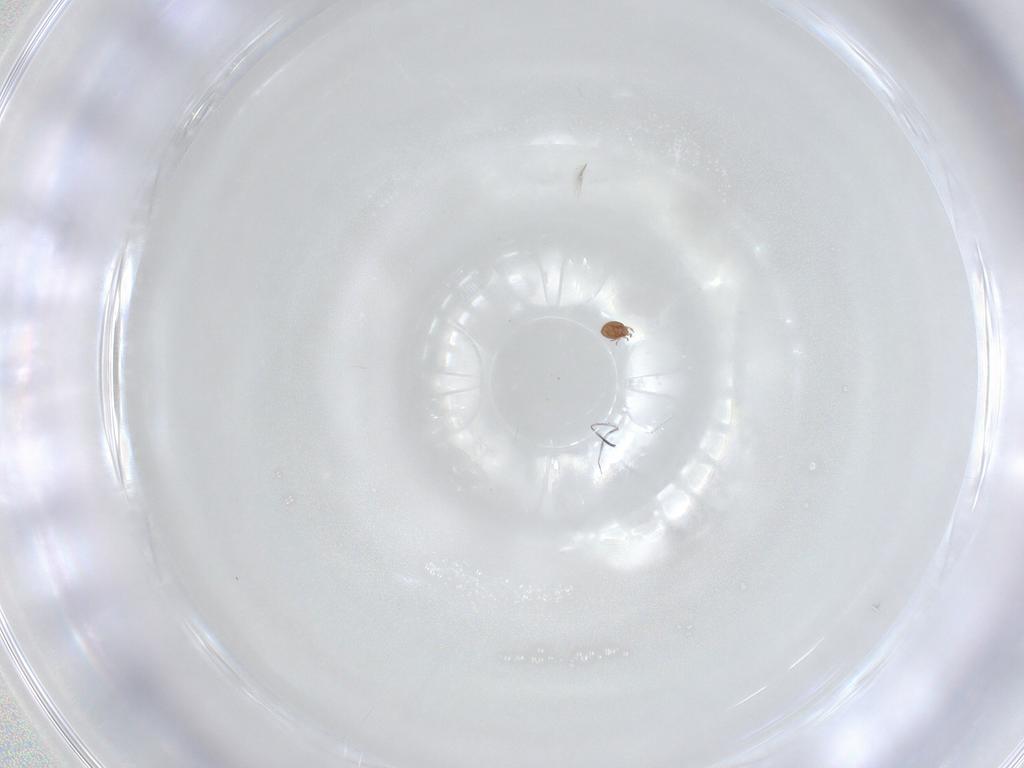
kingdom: Animalia
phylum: Arthropoda
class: Collembola
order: Symphypleona
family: Katiannidae
